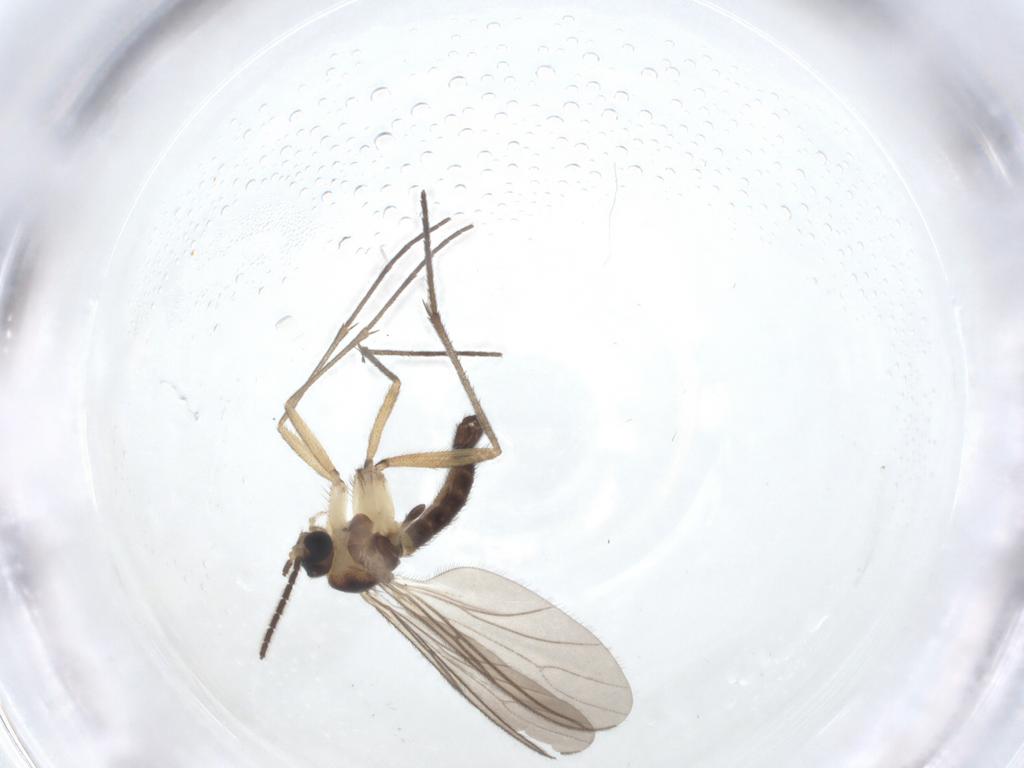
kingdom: Animalia
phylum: Arthropoda
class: Insecta
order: Diptera
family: Sciaridae
